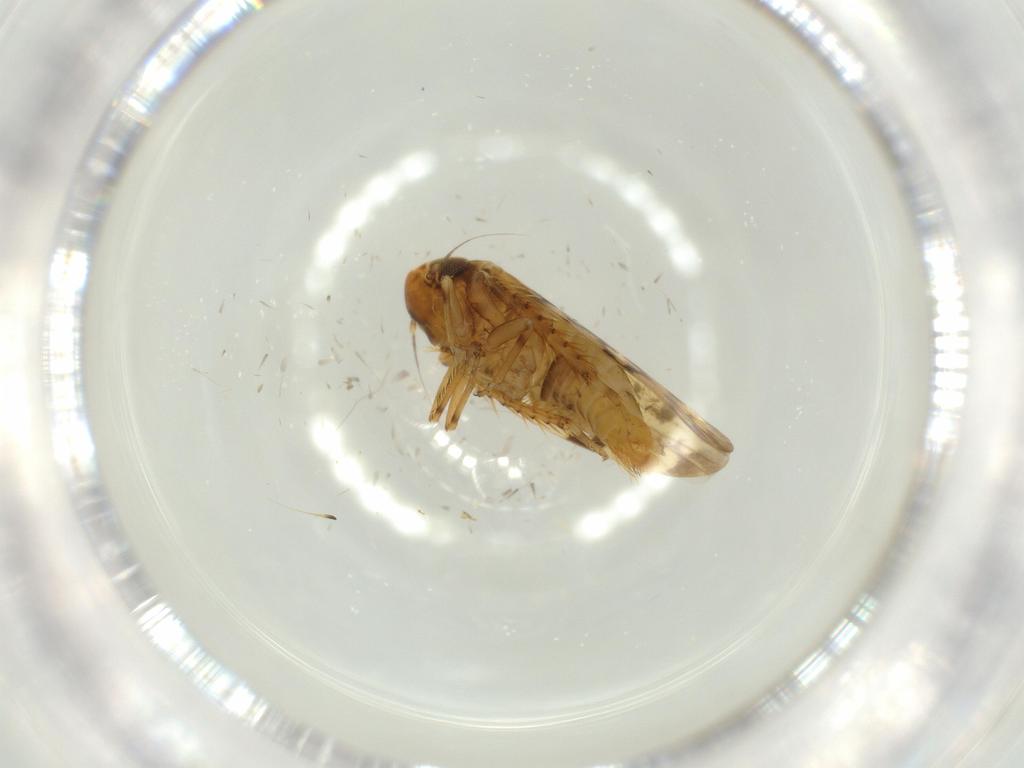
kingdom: Animalia
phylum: Arthropoda
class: Insecta
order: Hemiptera
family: Cicadellidae
